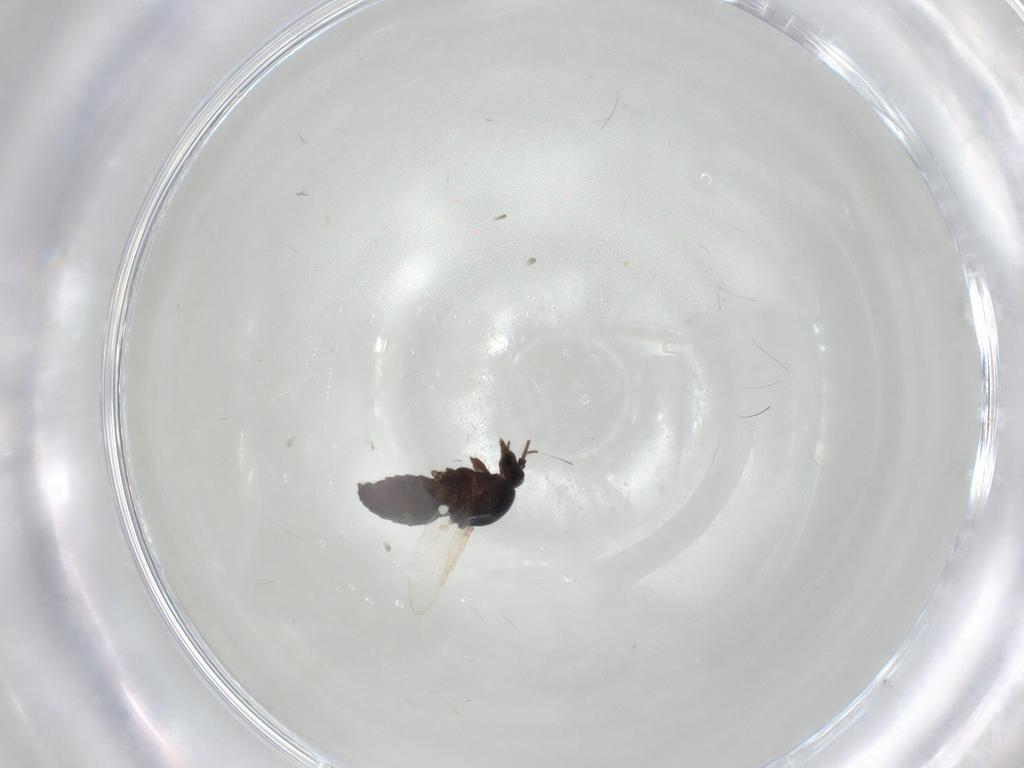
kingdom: Animalia
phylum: Arthropoda
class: Insecta
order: Diptera
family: Ceratopogonidae
